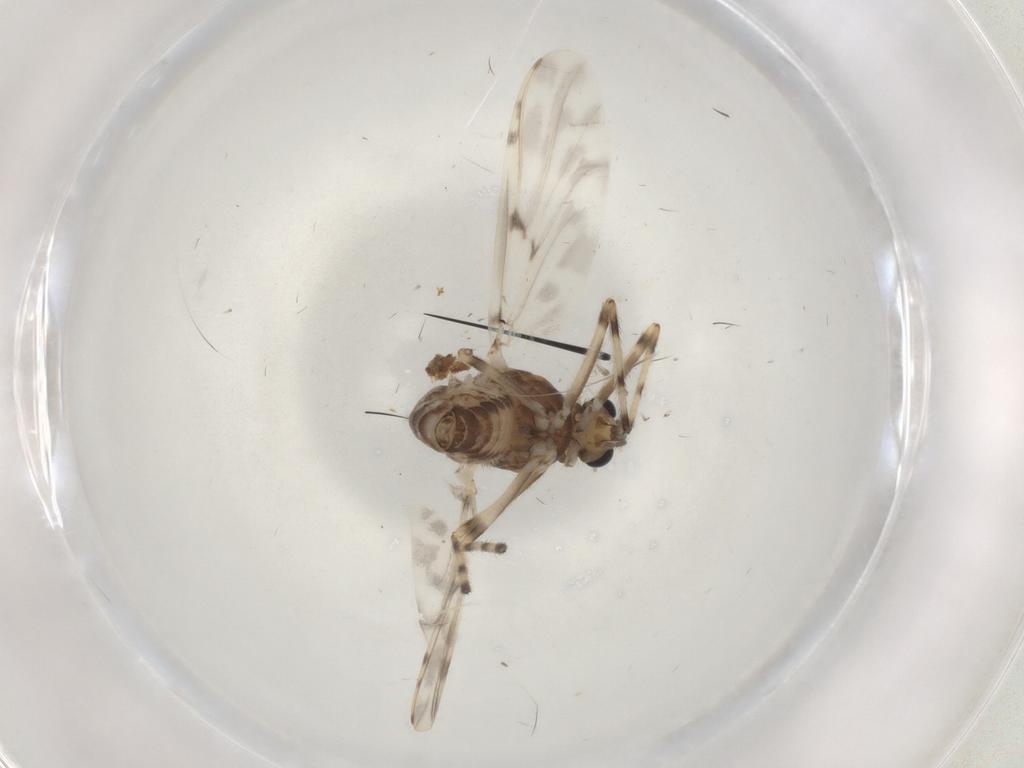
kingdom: Animalia
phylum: Arthropoda
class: Insecta
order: Diptera
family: Chironomidae
